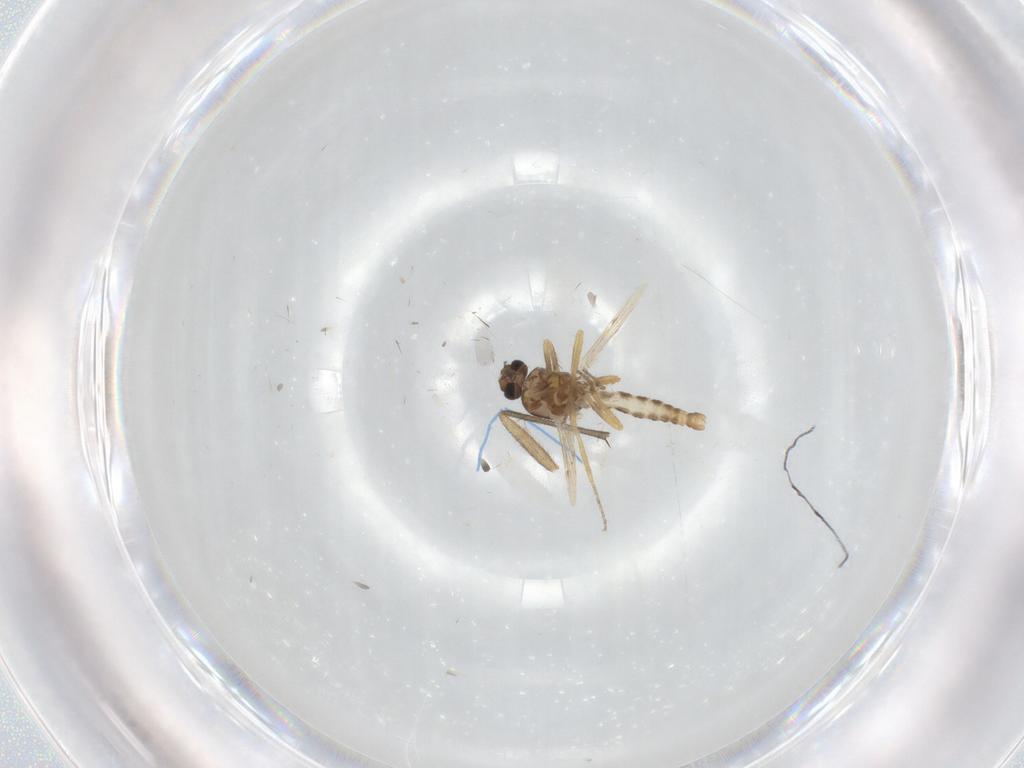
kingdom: Animalia
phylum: Arthropoda
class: Insecta
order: Diptera
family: Ceratopogonidae
